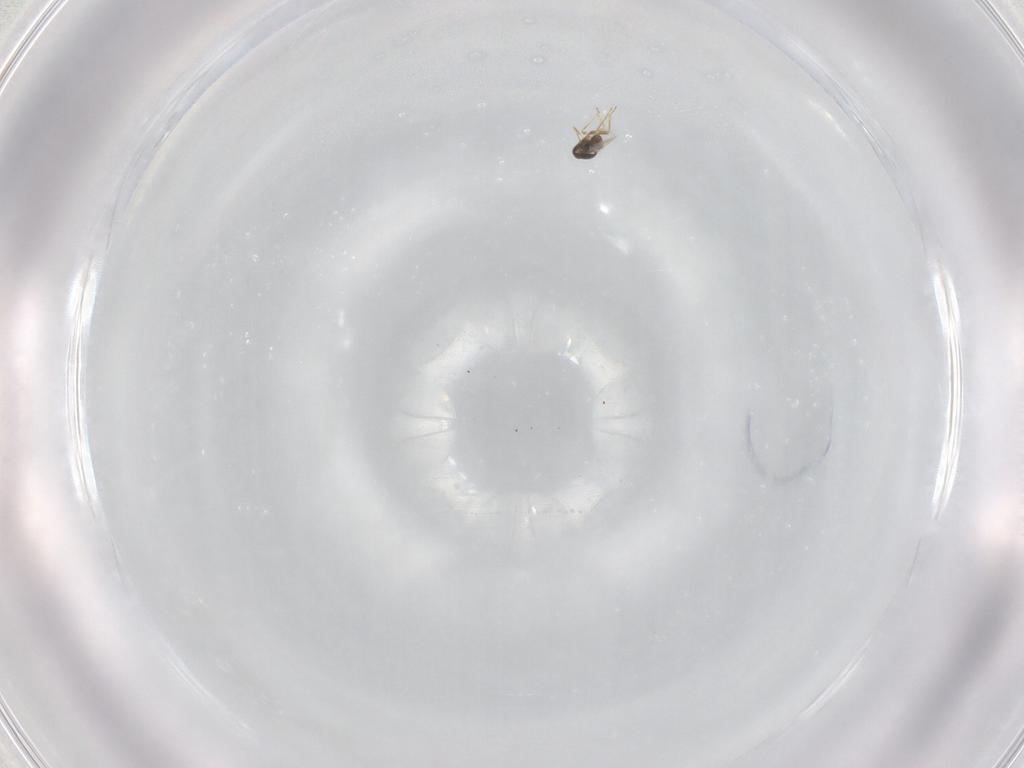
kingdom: Animalia
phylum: Arthropoda
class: Insecta
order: Hymenoptera
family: Encyrtidae
